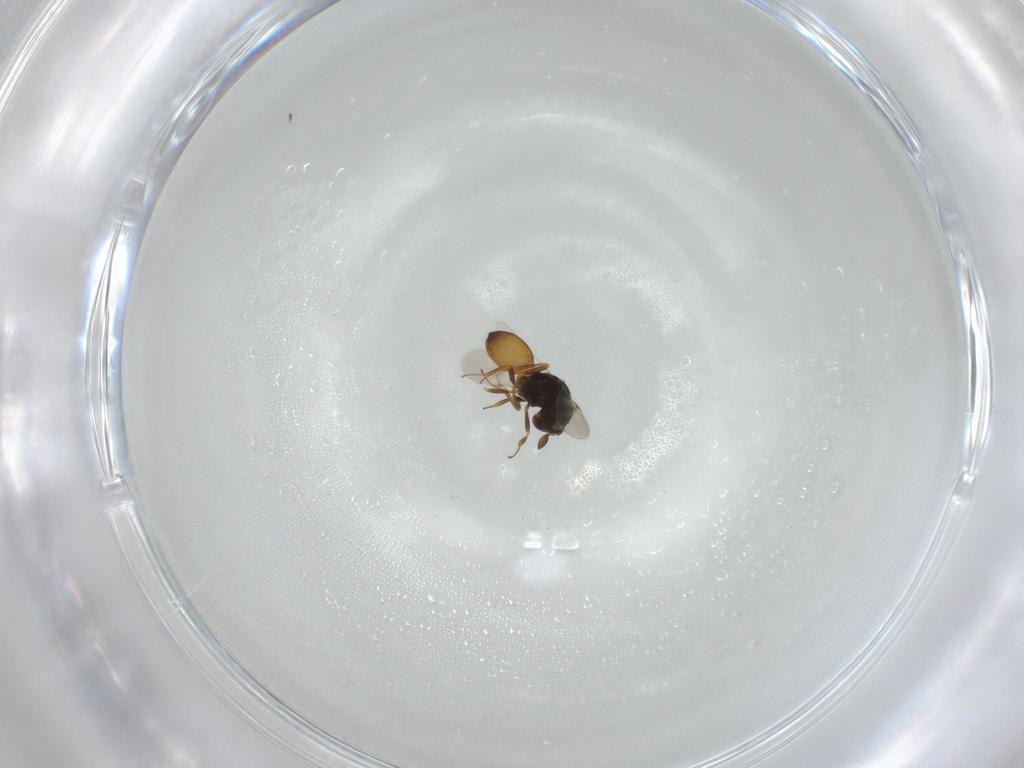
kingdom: Animalia
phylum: Arthropoda
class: Insecta
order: Hymenoptera
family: Scelionidae
